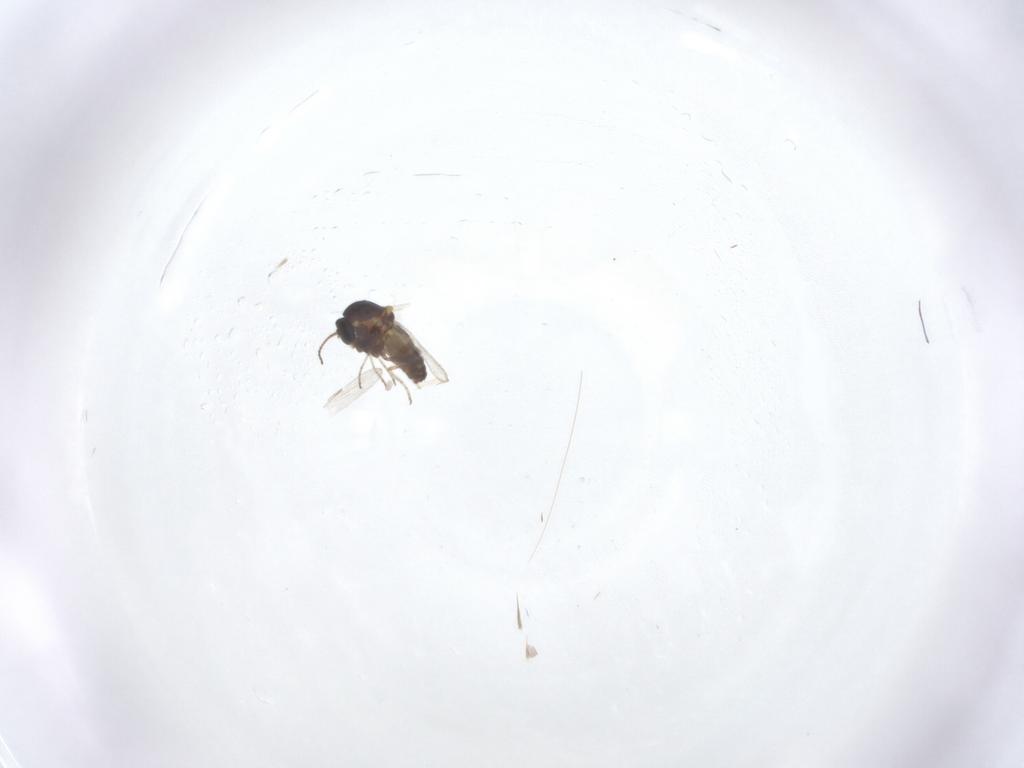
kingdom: Animalia
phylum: Arthropoda
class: Insecta
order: Diptera
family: Ceratopogonidae
